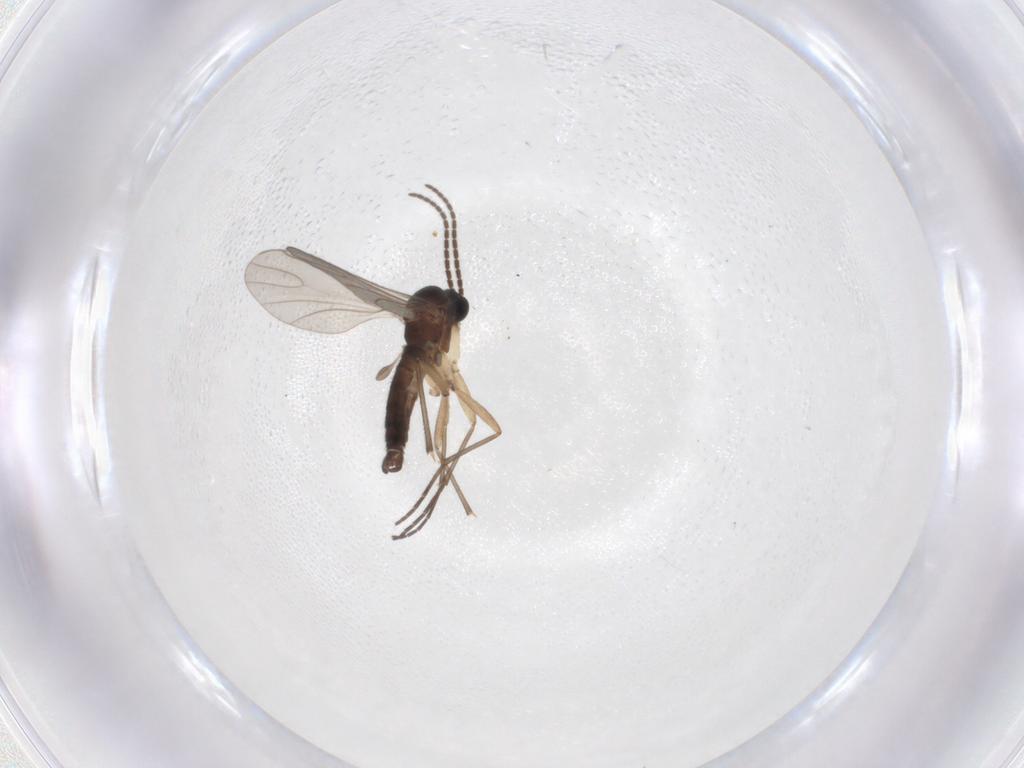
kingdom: Animalia
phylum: Arthropoda
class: Insecta
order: Diptera
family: Sciaridae
